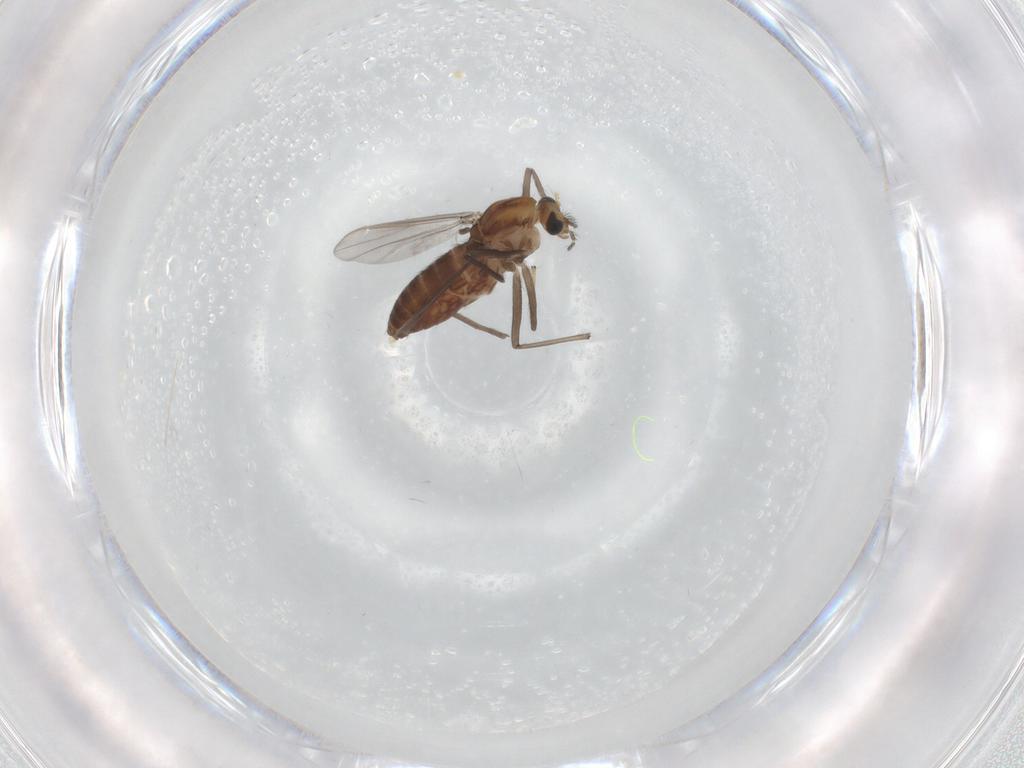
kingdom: Animalia
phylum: Arthropoda
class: Insecta
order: Diptera
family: Chironomidae
